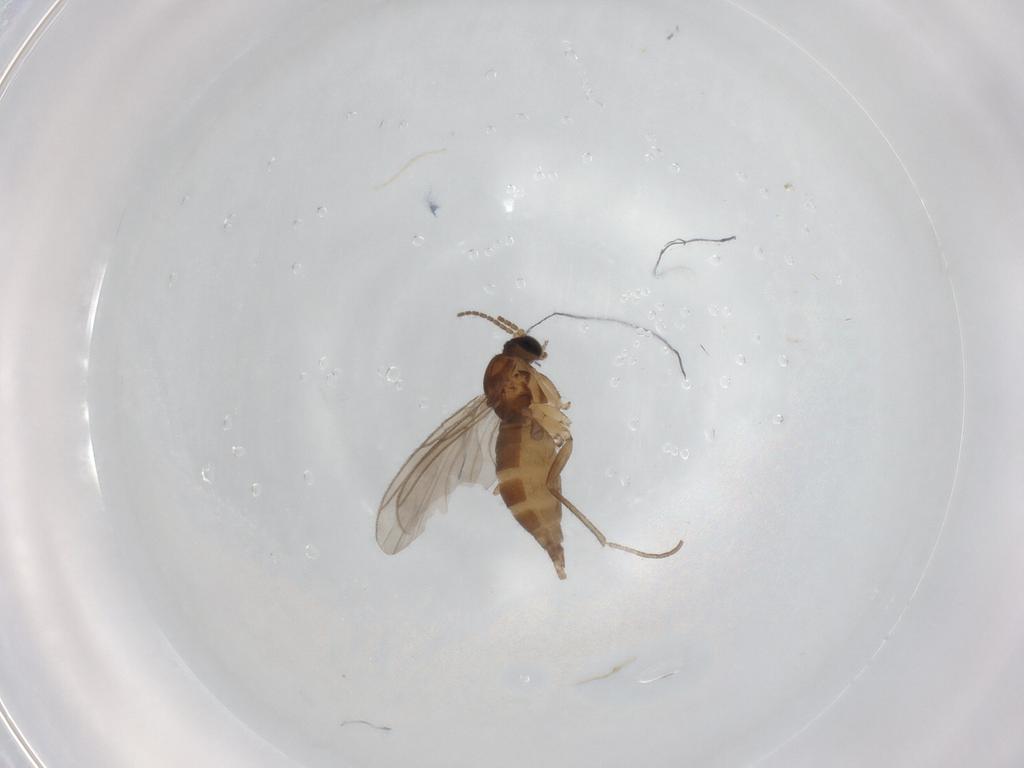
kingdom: Animalia
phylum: Arthropoda
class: Insecta
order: Diptera
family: Sciaridae
